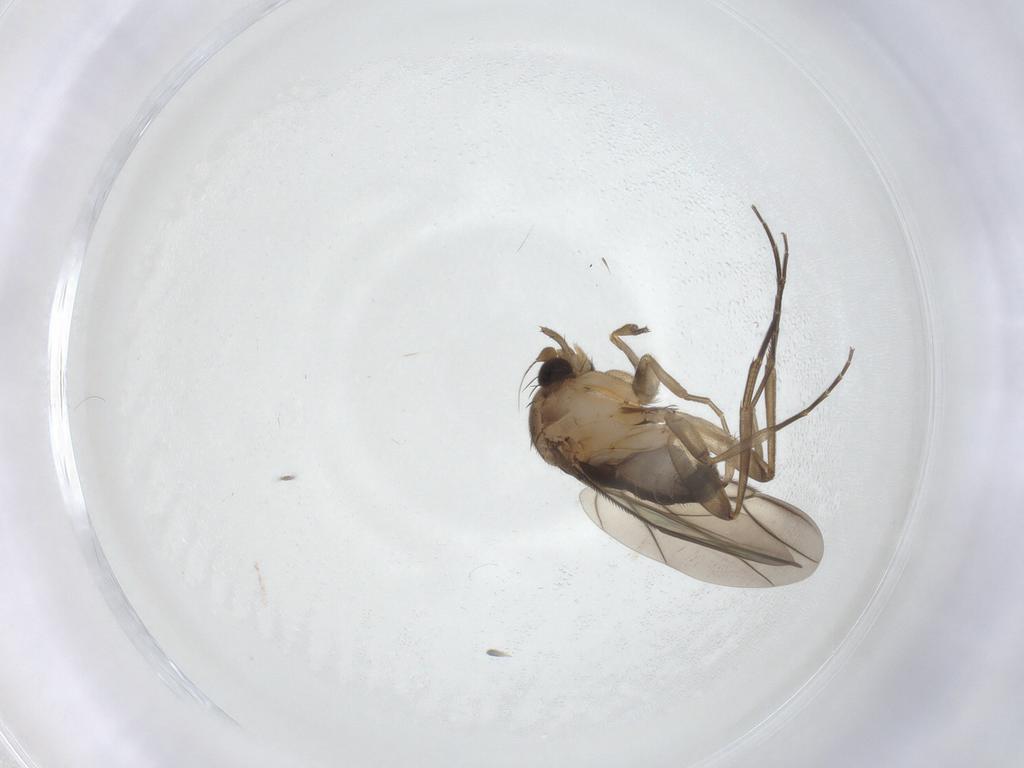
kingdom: Animalia
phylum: Arthropoda
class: Insecta
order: Diptera
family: Phoridae
